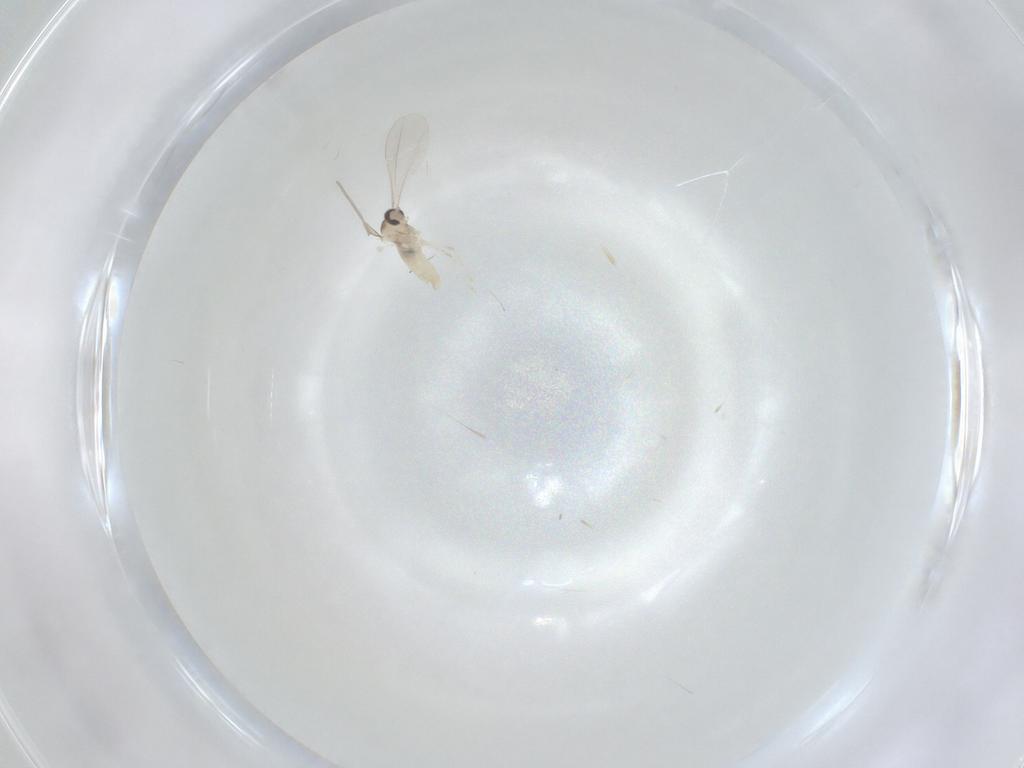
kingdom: Animalia
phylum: Arthropoda
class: Insecta
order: Diptera
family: Cecidomyiidae
